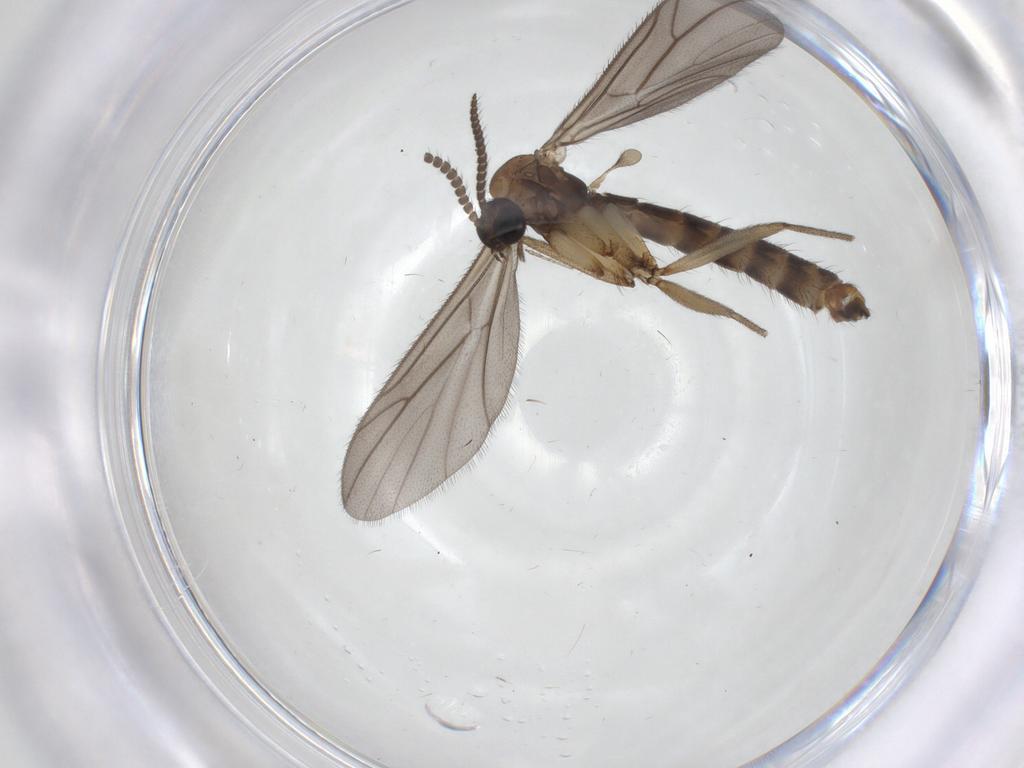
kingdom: Animalia
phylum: Arthropoda
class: Insecta
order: Diptera
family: Ditomyiidae
